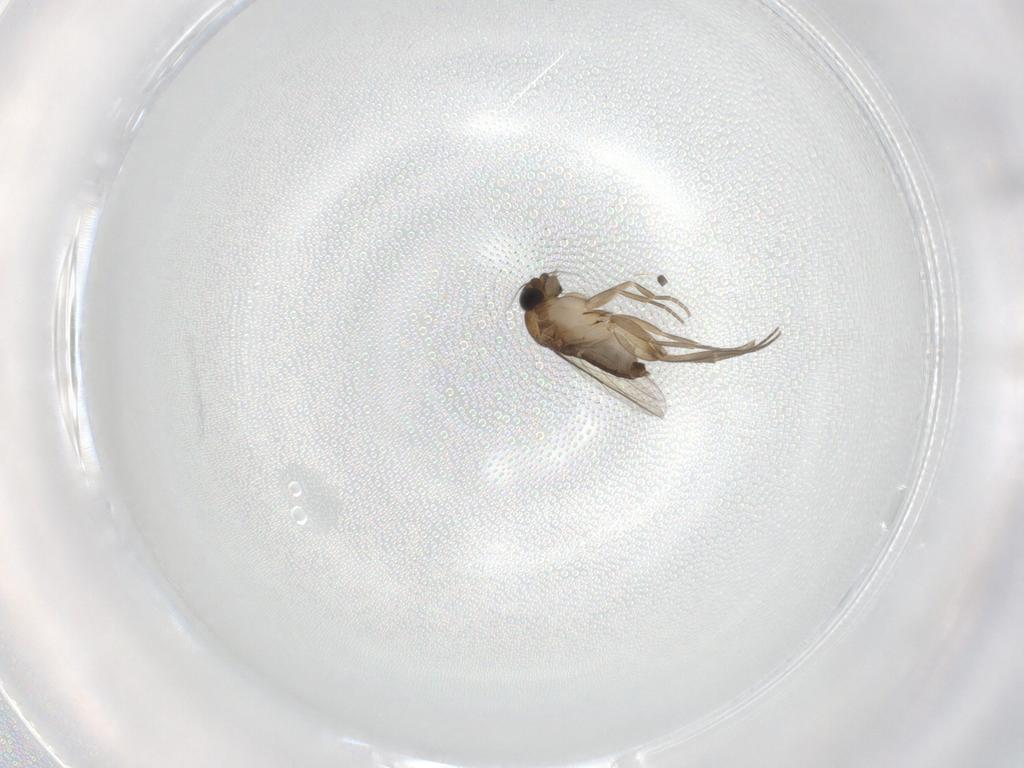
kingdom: Animalia
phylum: Arthropoda
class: Insecta
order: Diptera
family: Phoridae
